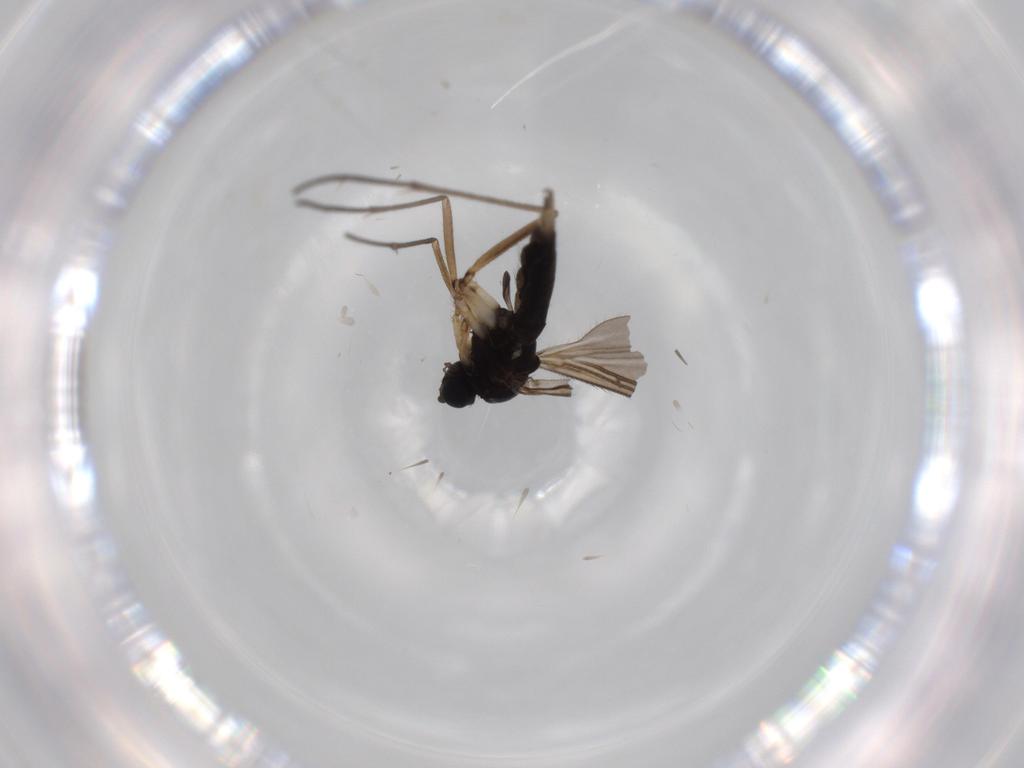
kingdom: Animalia
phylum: Arthropoda
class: Insecta
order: Diptera
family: Sciaridae
